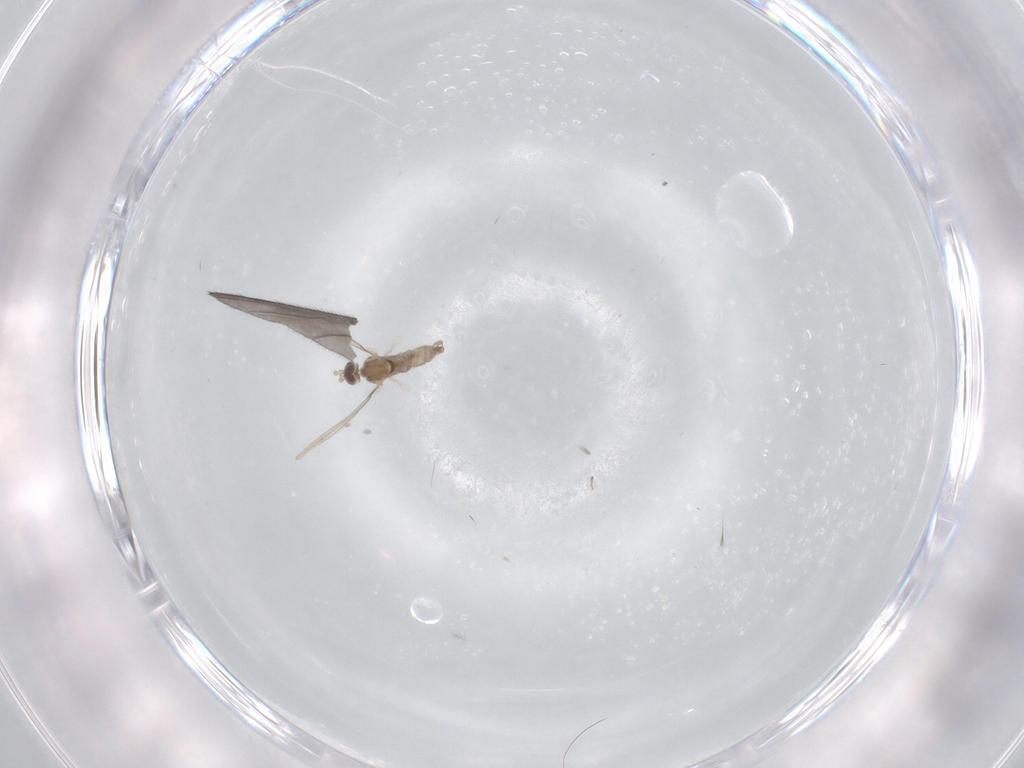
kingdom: Animalia
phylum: Arthropoda
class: Insecta
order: Diptera
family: Cecidomyiidae
